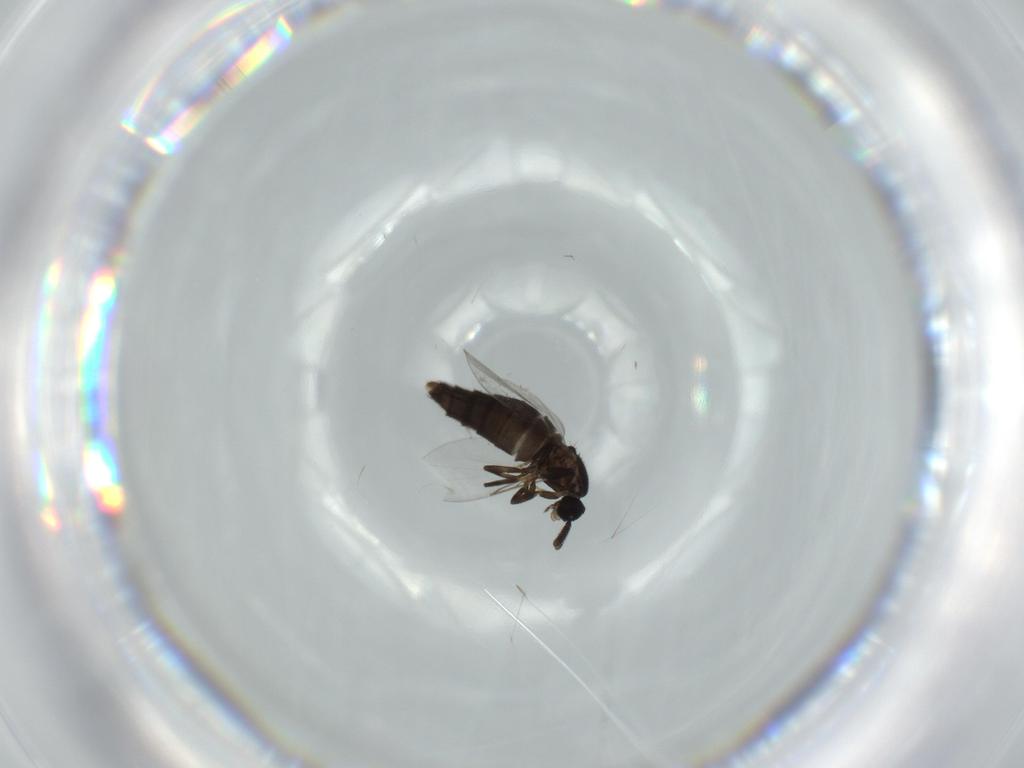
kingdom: Animalia
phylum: Arthropoda
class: Insecta
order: Diptera
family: Scatopsidae
